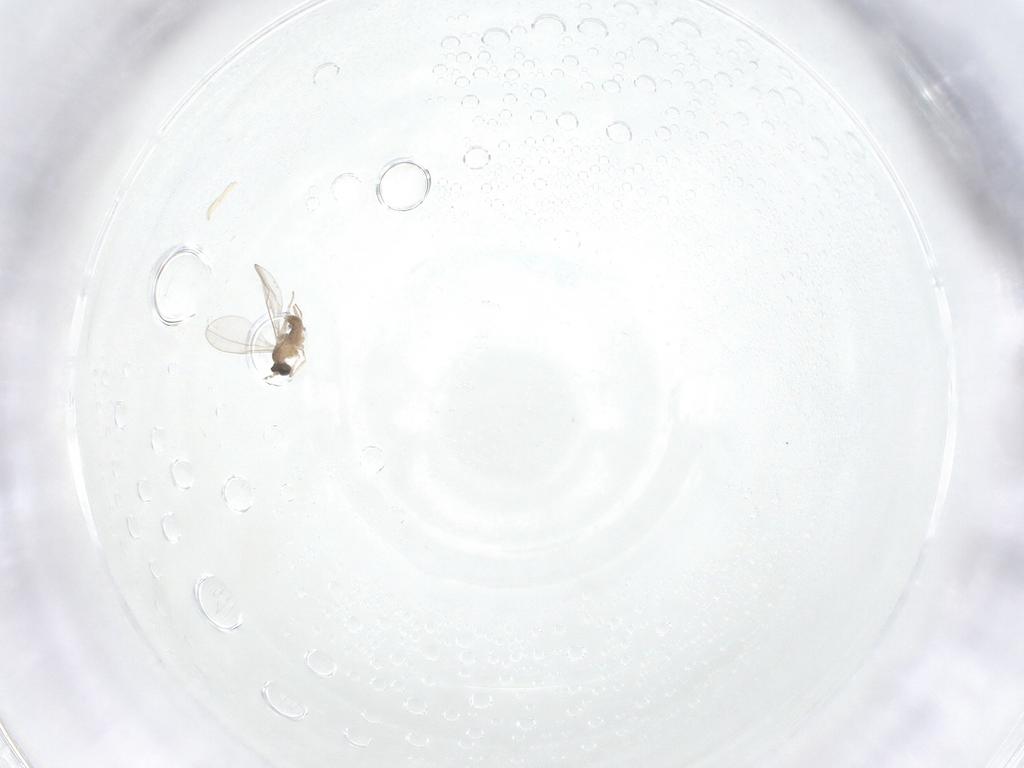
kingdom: Animalia
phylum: Arthropoda
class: Insecta
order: Diptera
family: Cecidomyiidae
